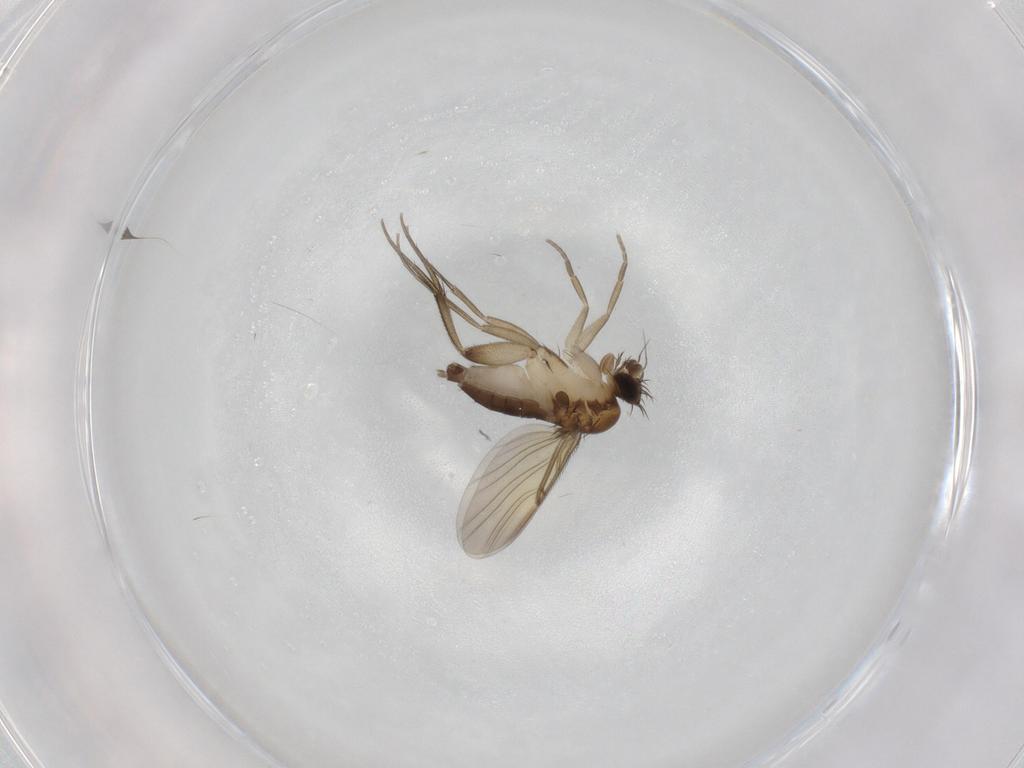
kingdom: Animalia
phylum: Arthropoda
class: Insecta
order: Diptera
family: Phoridae
